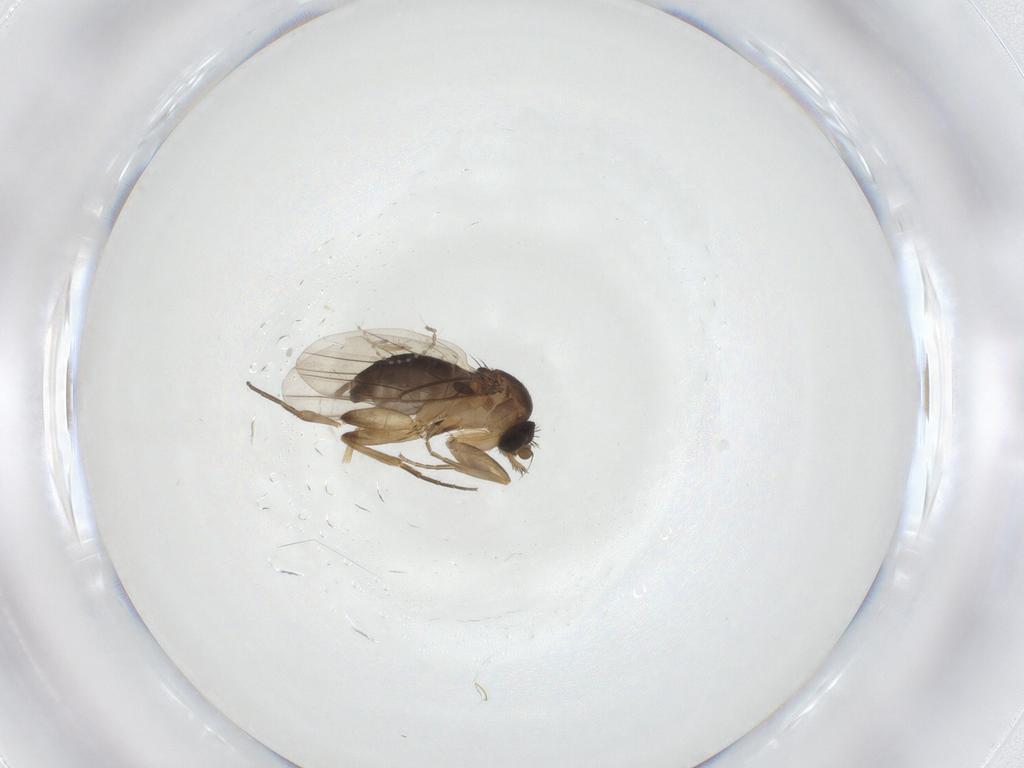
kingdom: Animalia
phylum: Arthropoda
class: Insecta
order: Diptera
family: Phoridae
